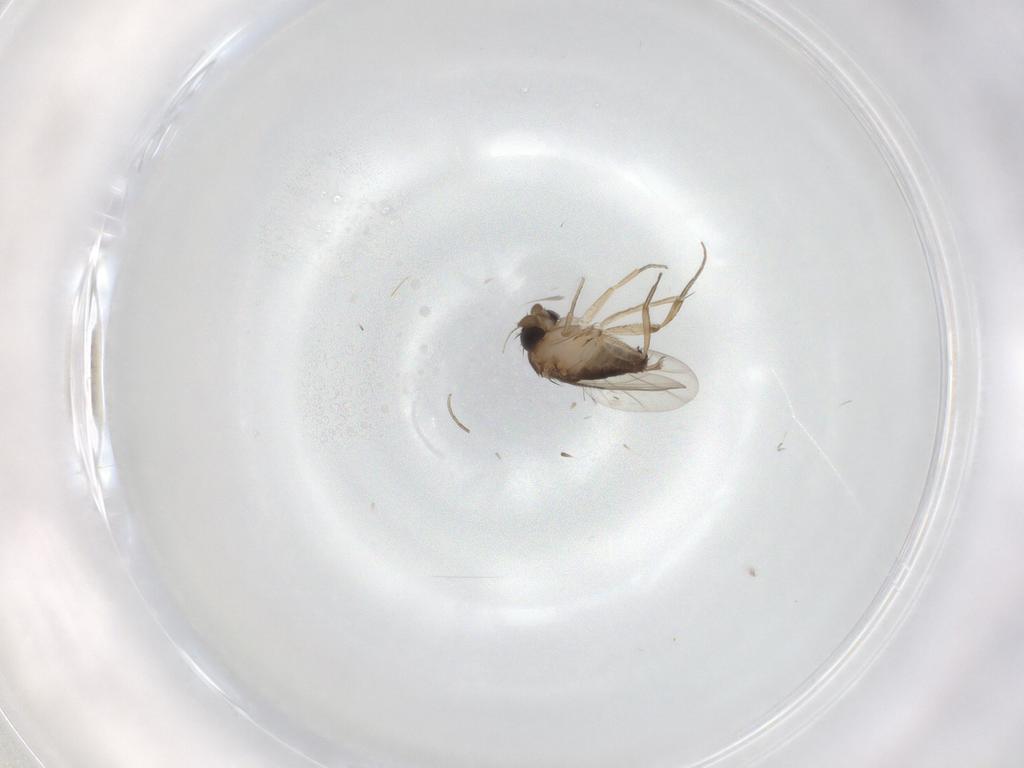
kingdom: Animalia
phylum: Arthropoda
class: Insecta
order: Diptera
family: Phoridae
